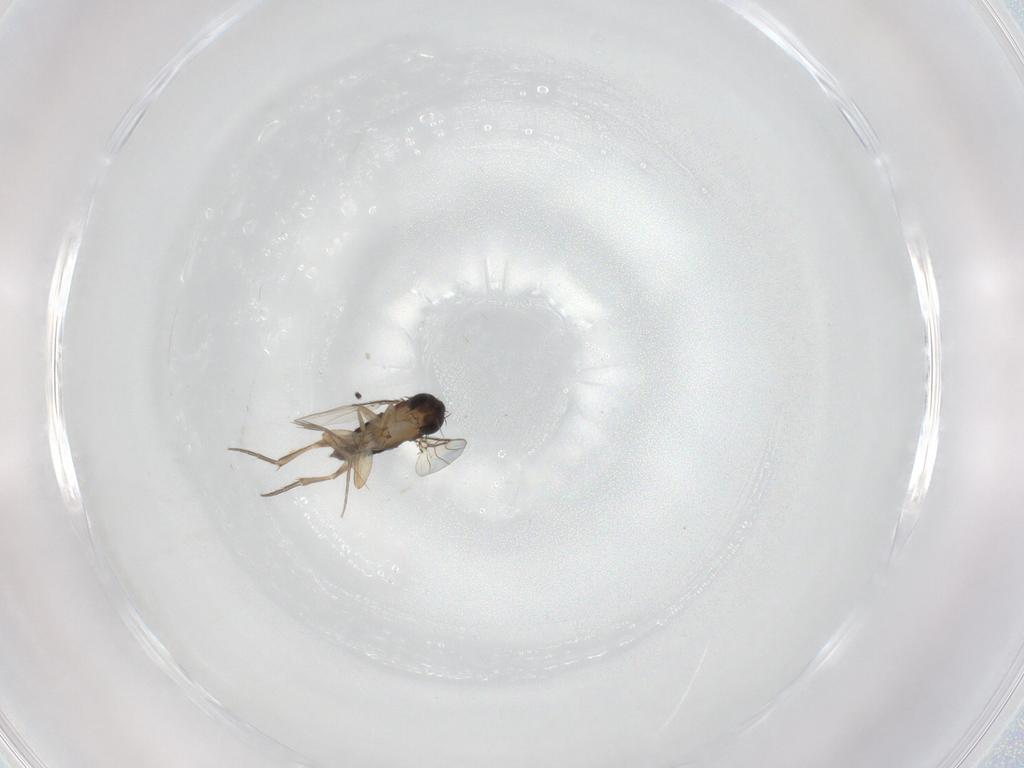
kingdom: Animalia
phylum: Arthropoda
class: Insecta
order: Diptera
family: Phoridae
